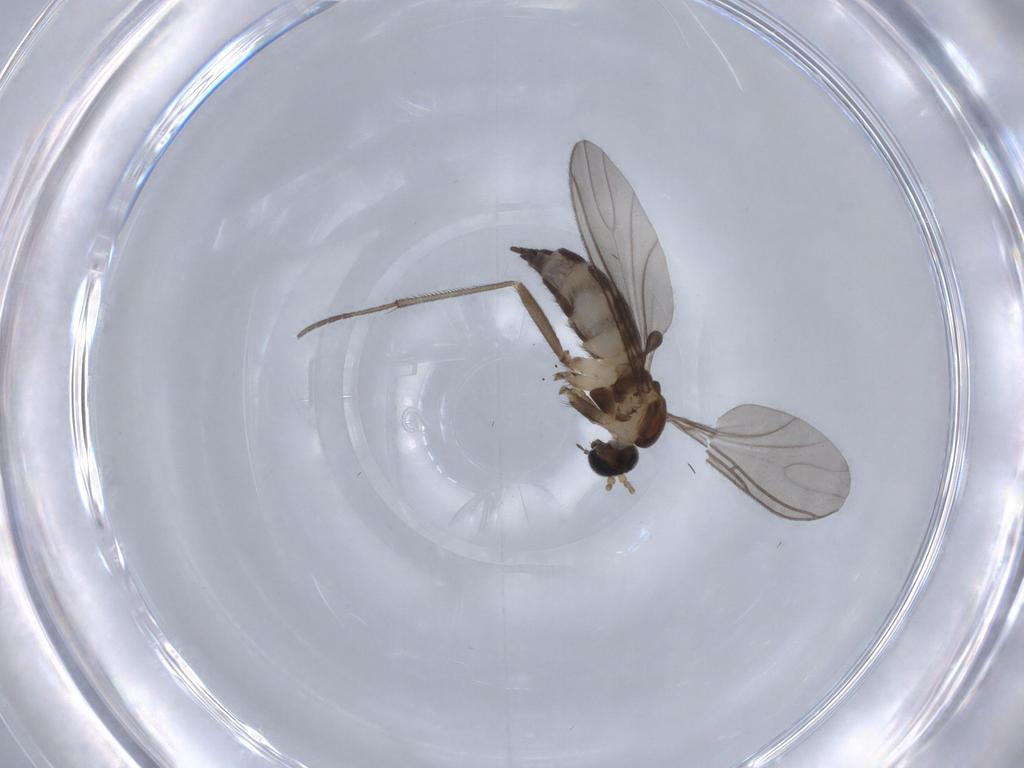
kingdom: Animalia
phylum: Arthropoda
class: Insecta
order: Diptera
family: Sciaridae
